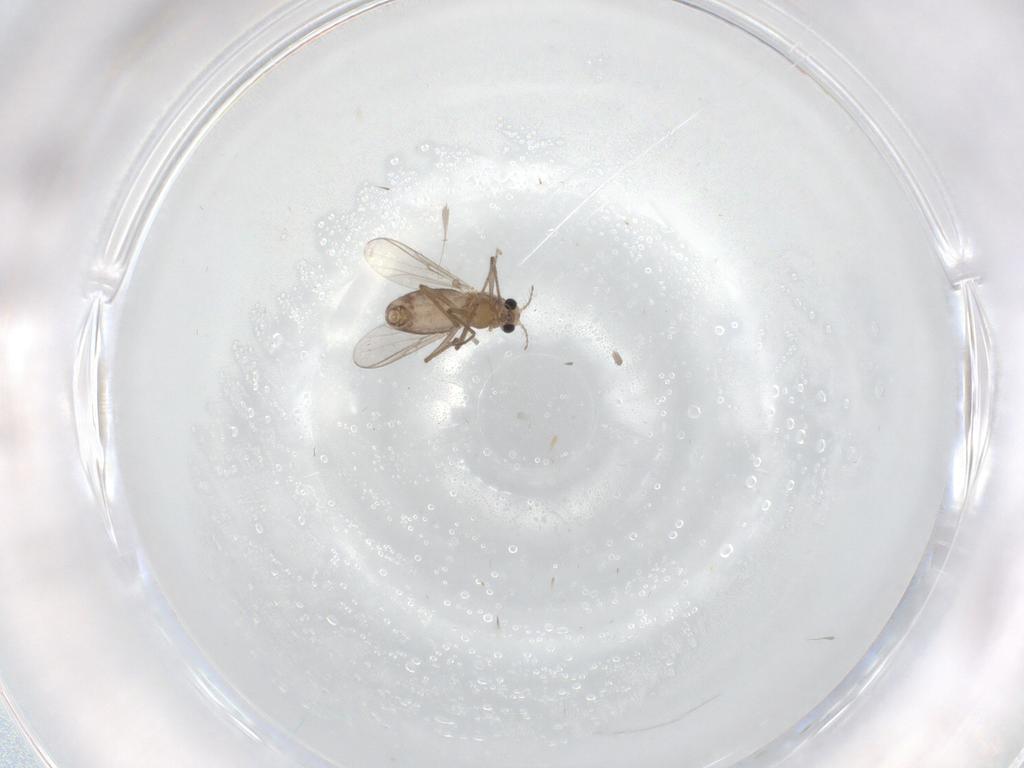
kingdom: Animalia
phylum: Arthropoda
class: Insecta
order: Diptera
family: Chironomidae
